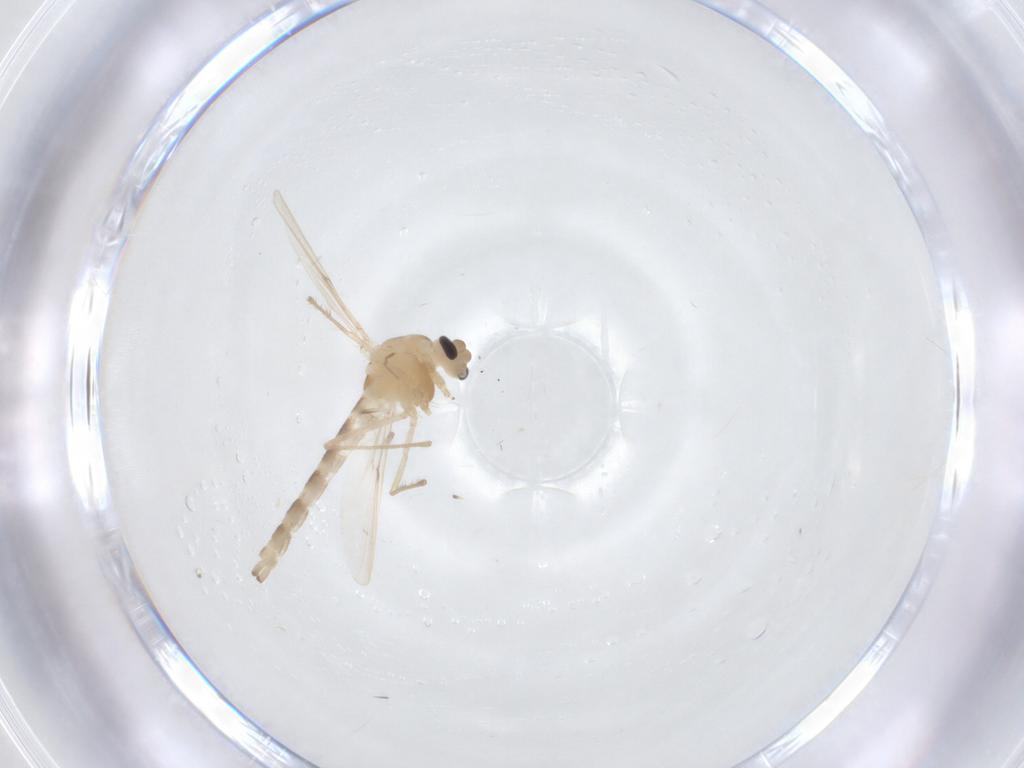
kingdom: Animalia
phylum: Arthropoda
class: Insecta
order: Diptera
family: Chironomidae
